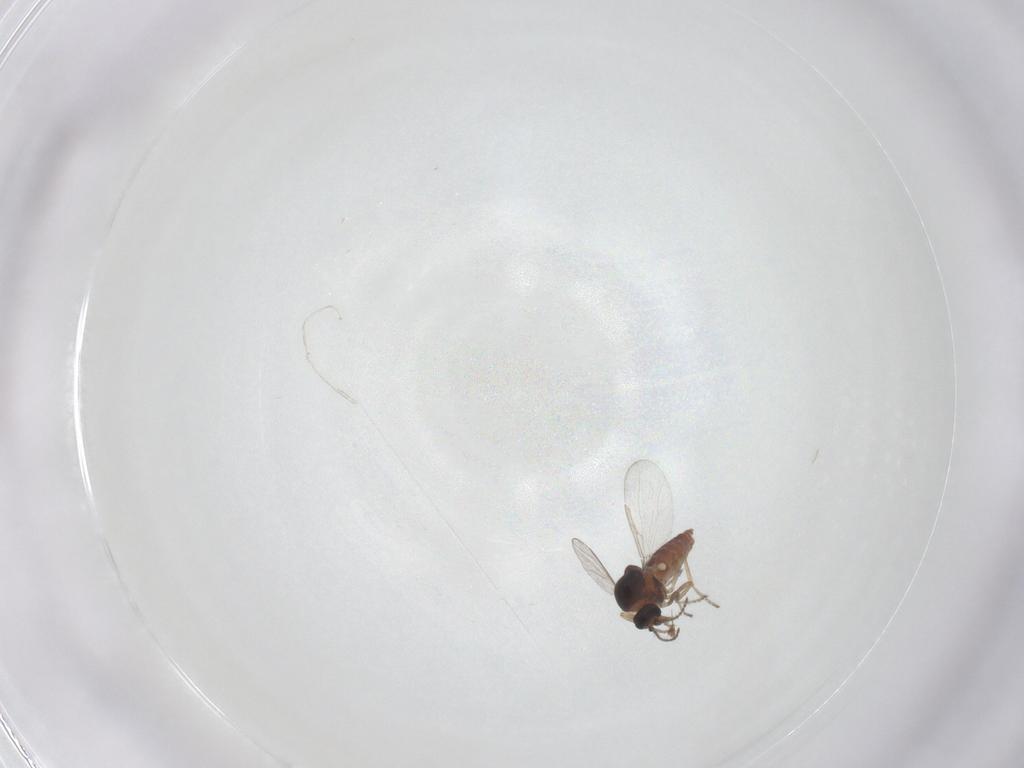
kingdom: Animalia
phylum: Arthropoda
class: Insecta
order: Diptera
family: Ceratopogonidae
